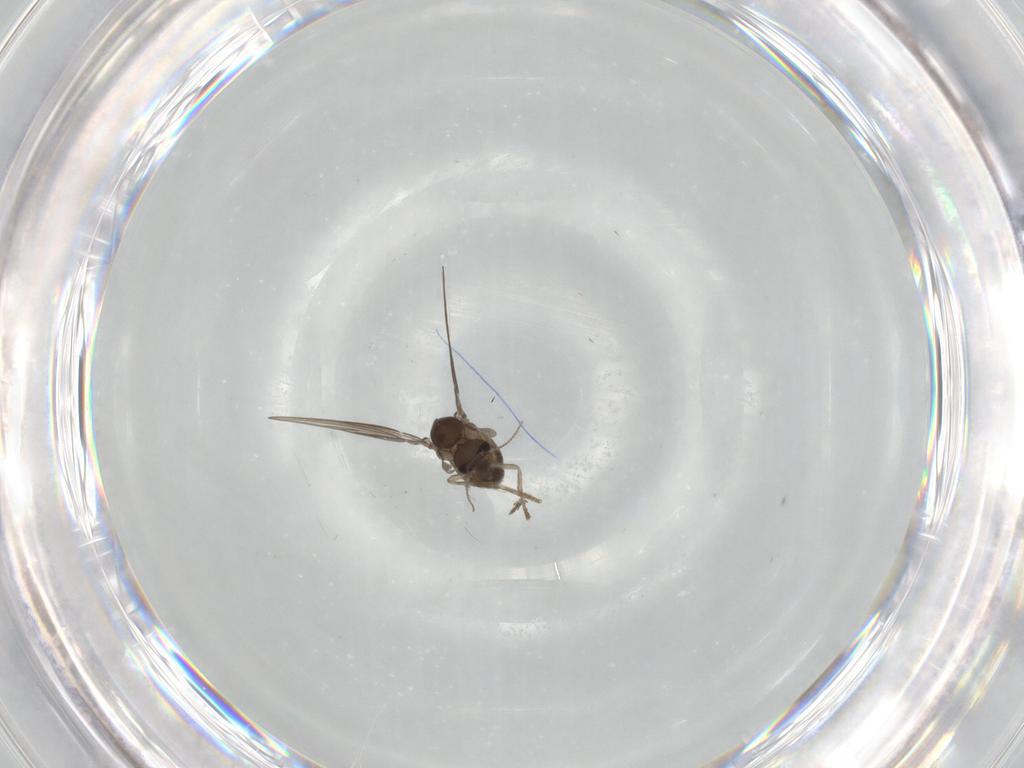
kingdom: Animalia
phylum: Arthropoda
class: Insecta
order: Diptera
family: Psychodidae
